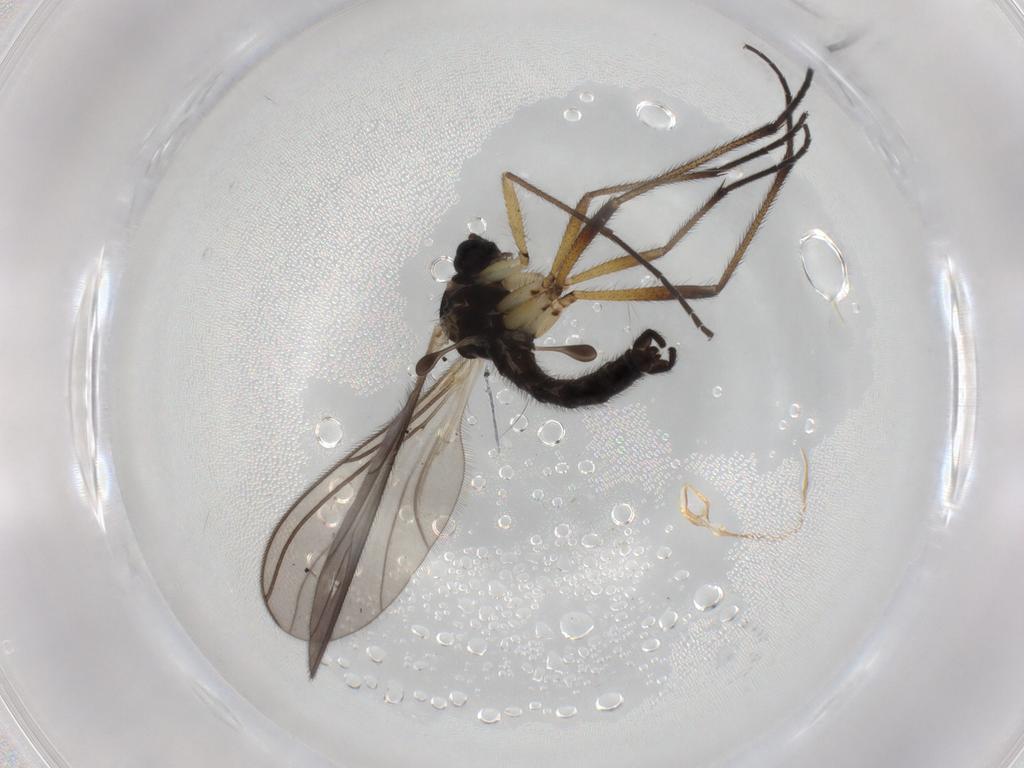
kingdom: Animalia
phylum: Arthropoda
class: Insecta
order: Diptera
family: Sciaridae
